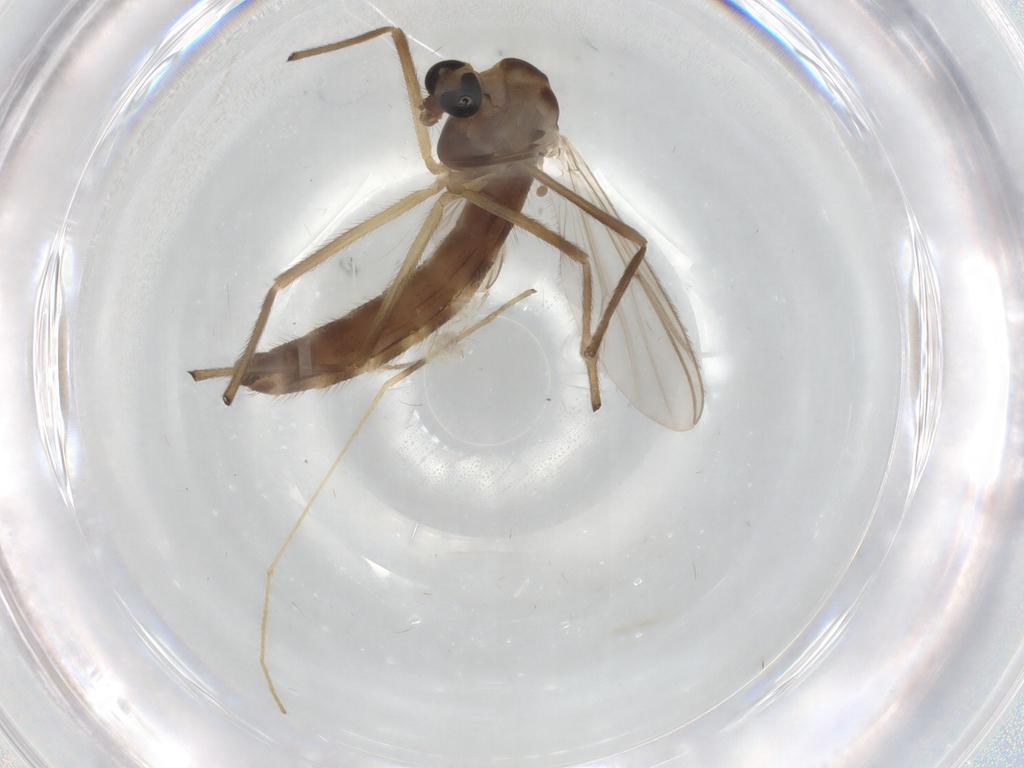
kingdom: Animalia
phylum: Arthropoda
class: Insecta
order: Diptera
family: Chironomidae
